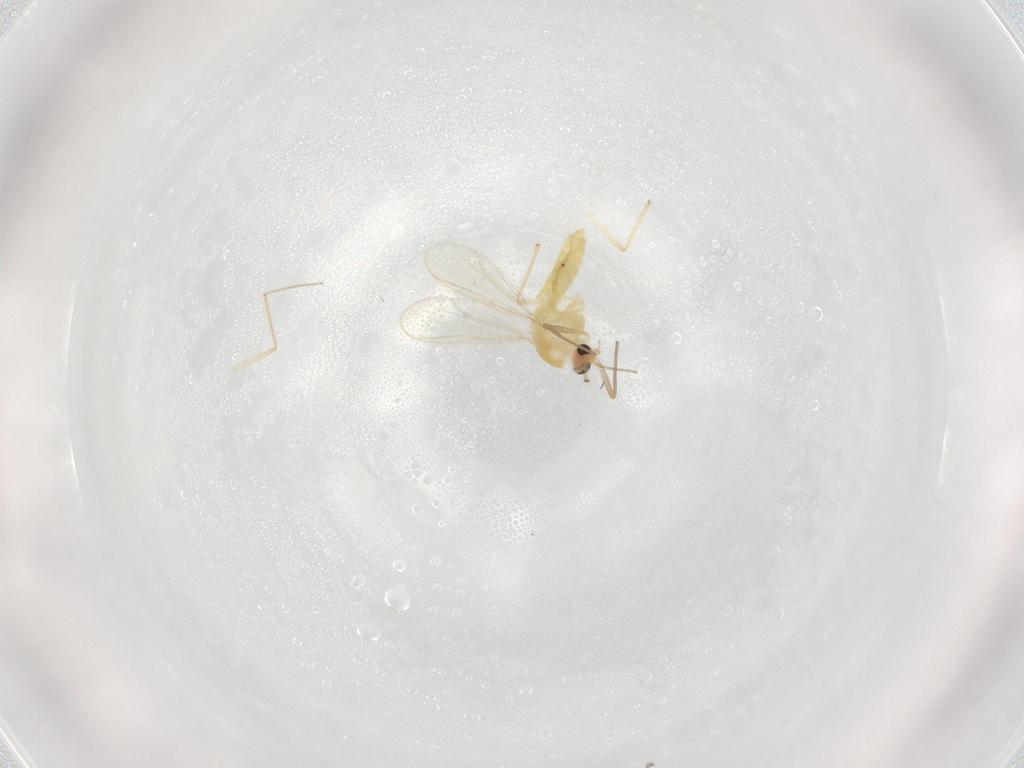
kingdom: Animalia
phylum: Arthropoda
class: Insecta
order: Diptera
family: Chironomidae
